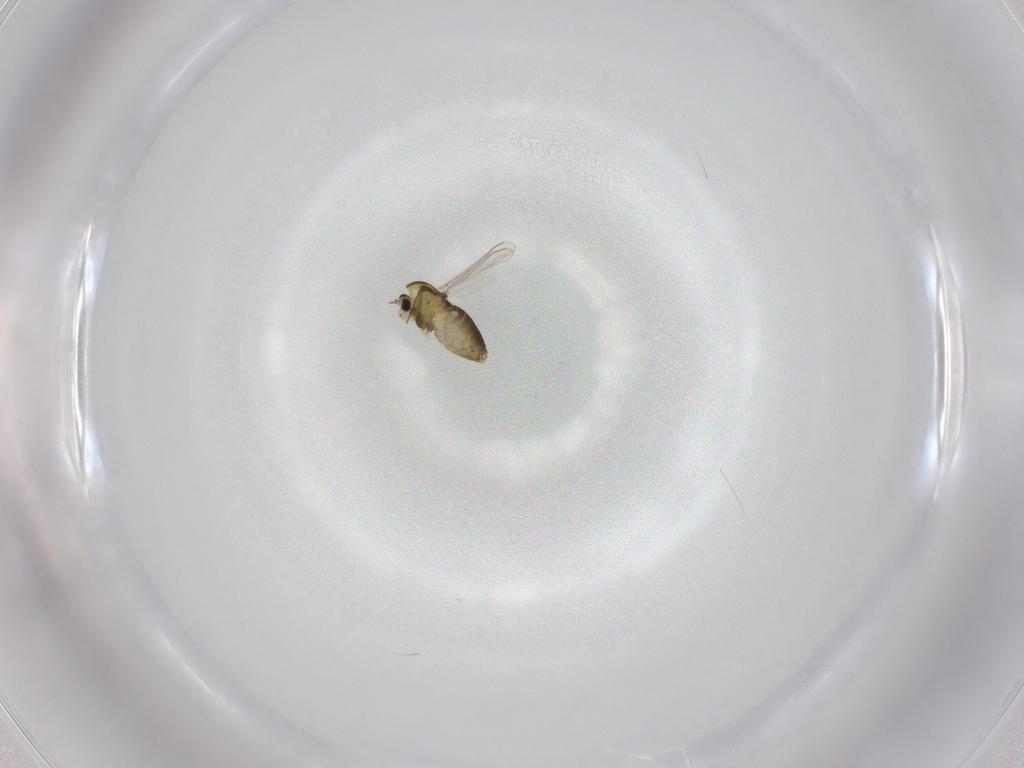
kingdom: Animalia
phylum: Arthropoda
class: Insecta
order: Diptera
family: Chironomidae
